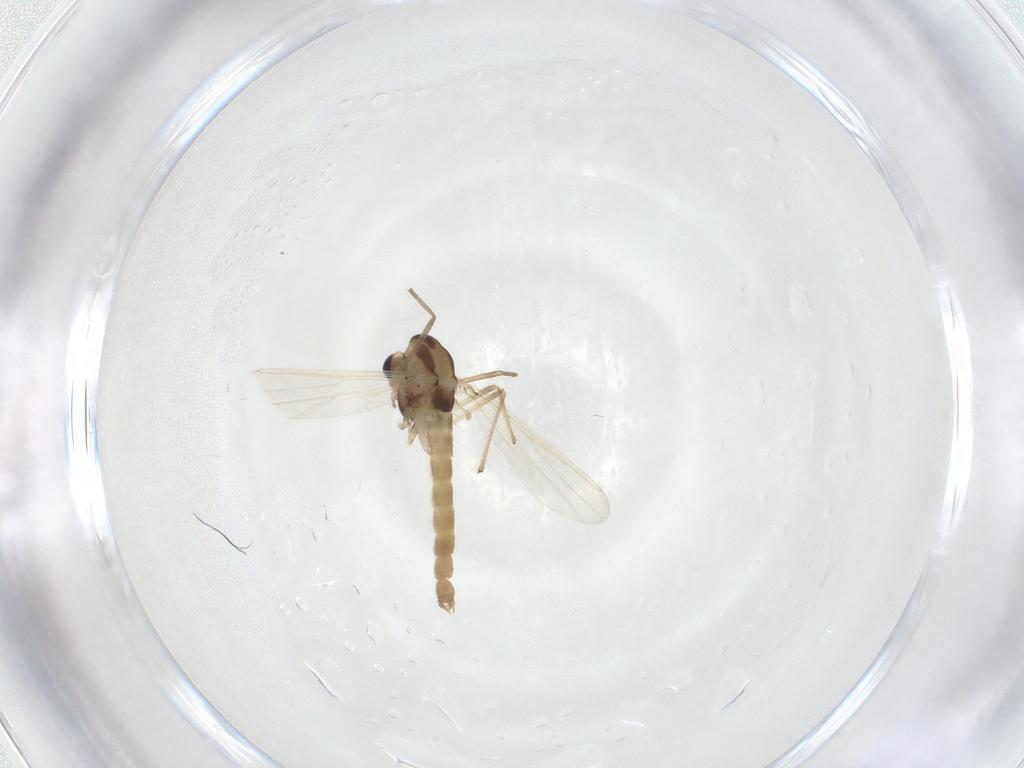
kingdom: Animalia
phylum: Arthropoda
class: Insecta
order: Diptera
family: Chironomidae
